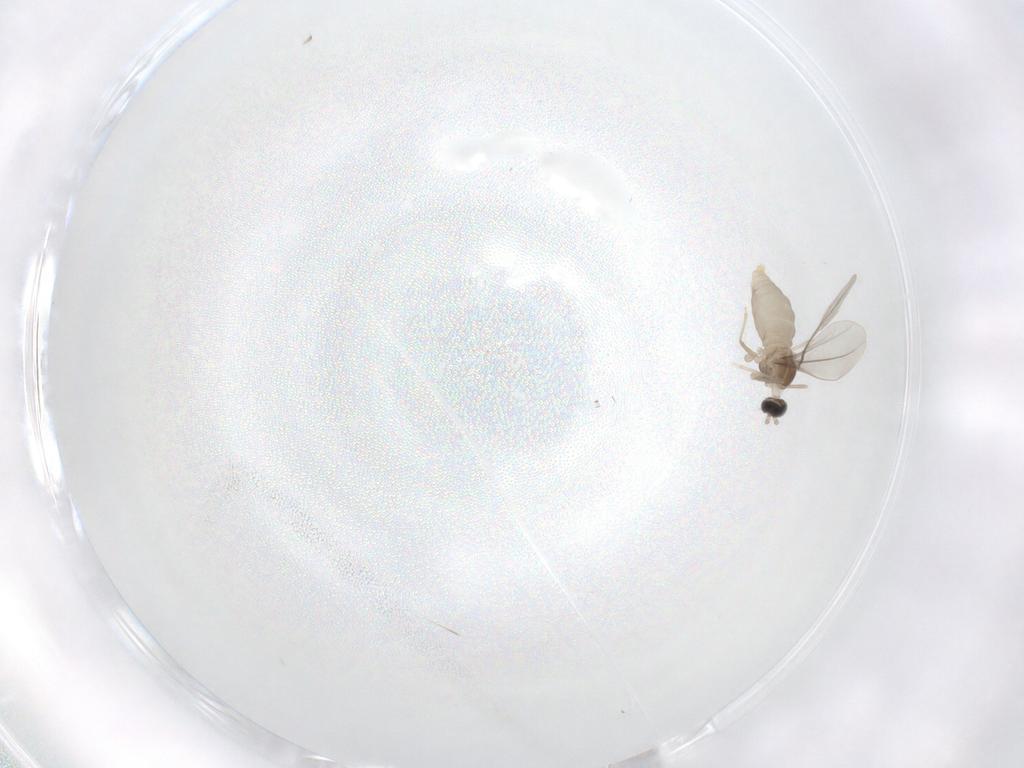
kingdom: Animalia
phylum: Arthropoda
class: Insecta
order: Diptera
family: Cecidomyiidae
